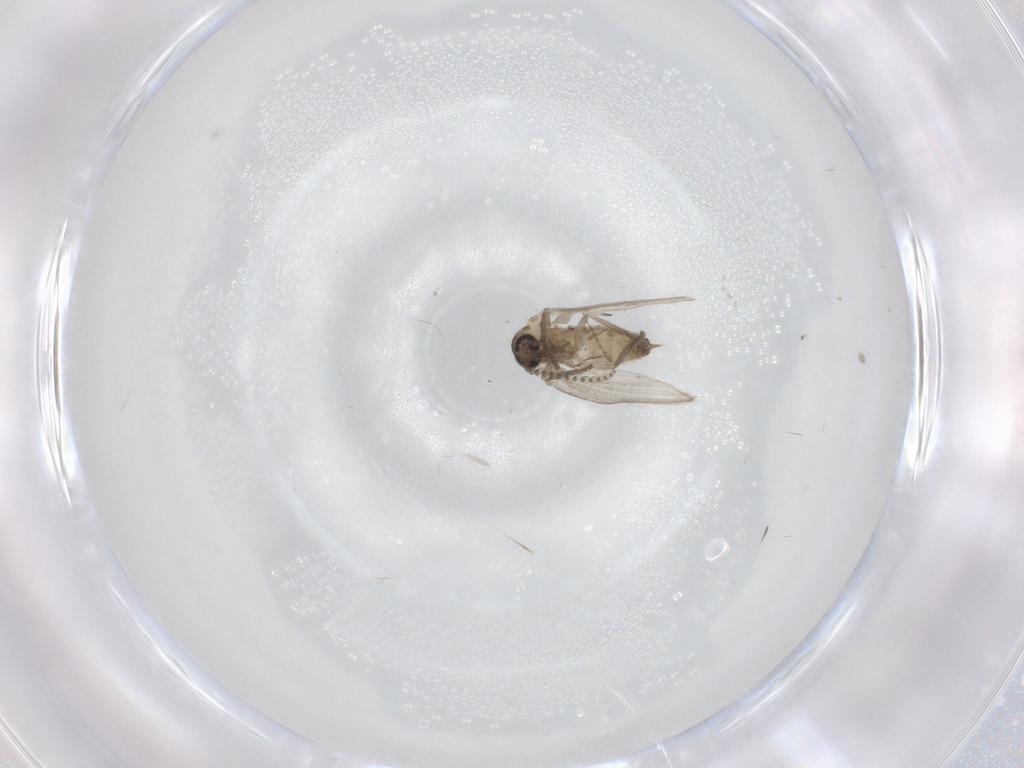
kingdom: Animalia
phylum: Arthropoda
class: Insecta
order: Diptera
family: Psychodidae
